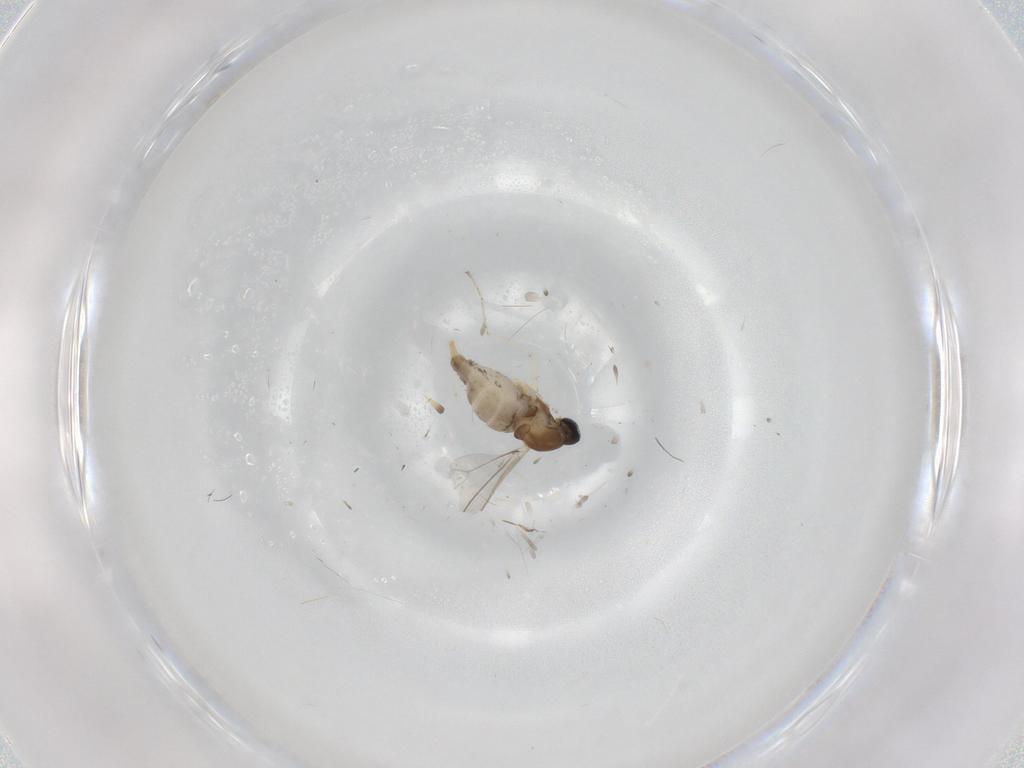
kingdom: Animalia
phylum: Arthropoda
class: Insecta
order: Diptera
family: Cecidomyiidae
